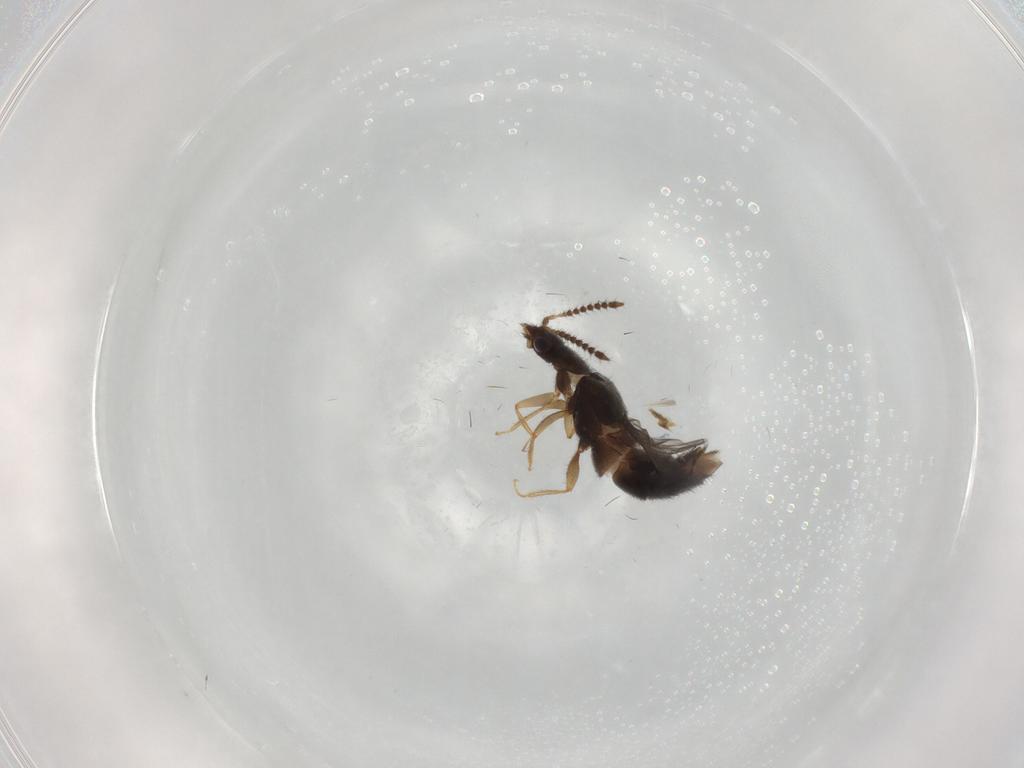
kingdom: Animalia
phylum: Arthropoda
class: Insecta
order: Coleoptera
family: Staphylinidae
